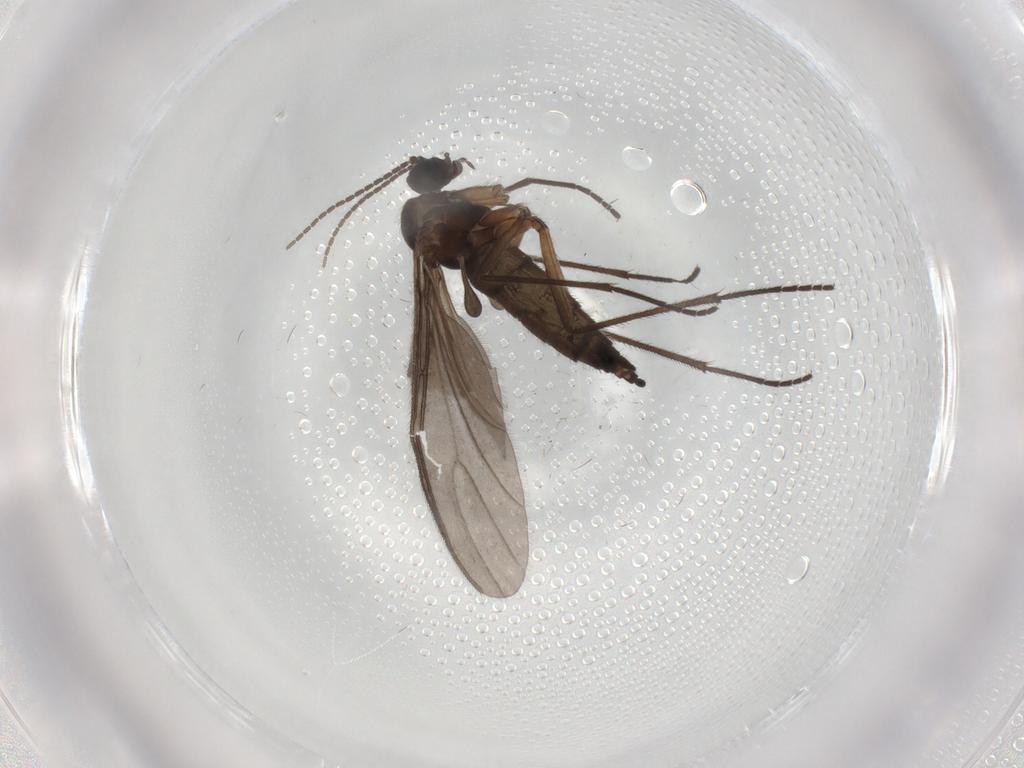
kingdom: Animalia
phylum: Arthropoda
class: Insecta
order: Diptera
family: Sciaridae
